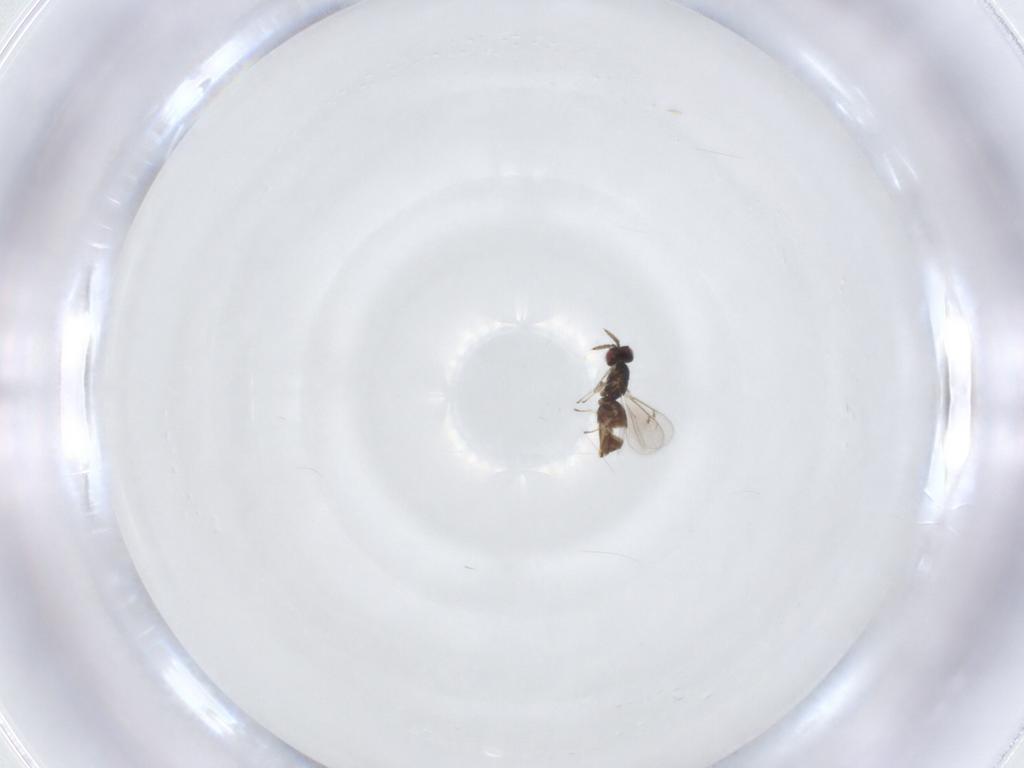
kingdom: Animalia
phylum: Arthropoda
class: Insecta
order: Hymenoptera
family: Eulophidae
